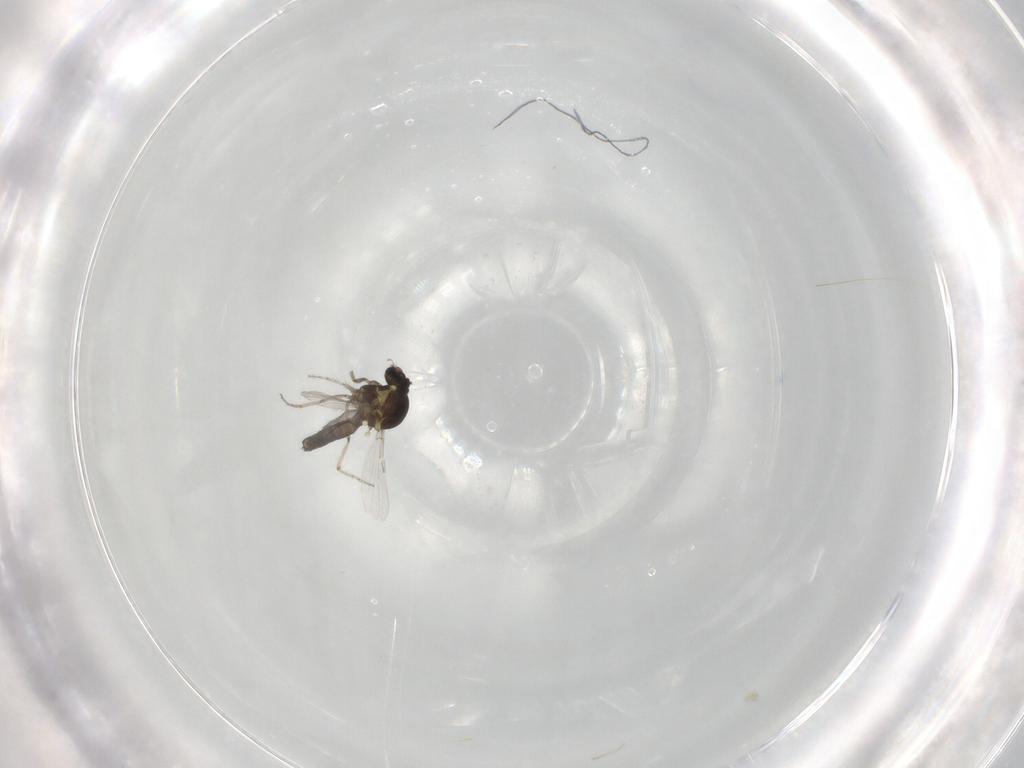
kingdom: Animalia
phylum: Arthropoda
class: Insecta
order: Diptera
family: Ceratopogonidae
